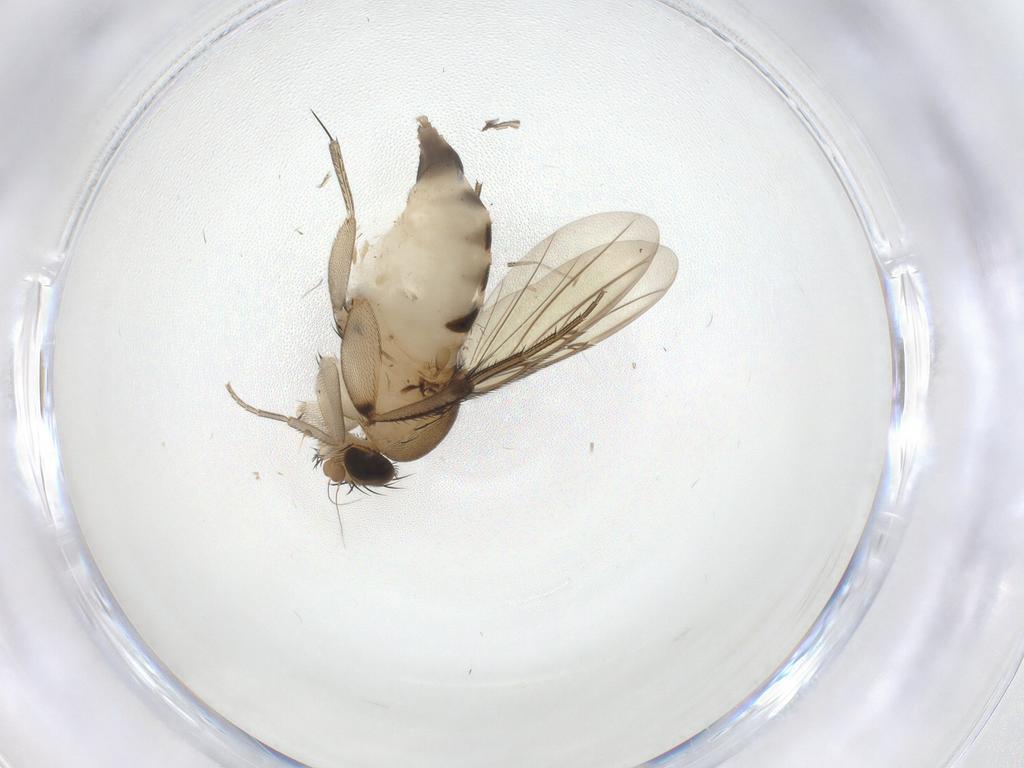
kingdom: Animalia
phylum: Arthropoda
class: Insecta
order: Diptera
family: Phoridae
